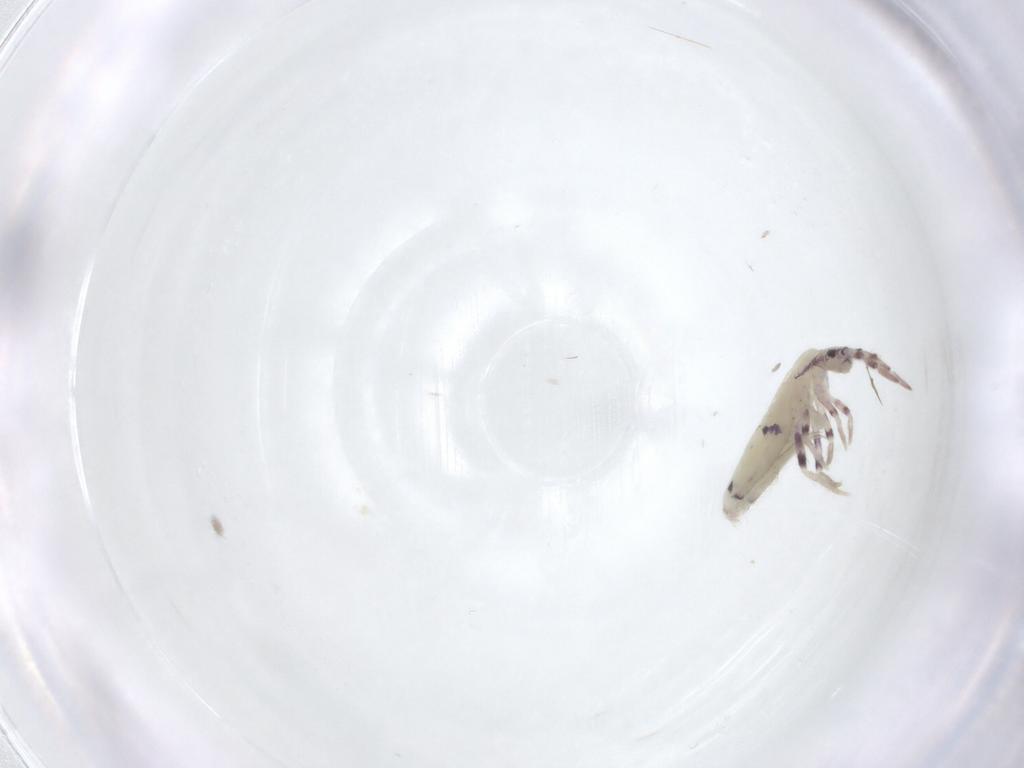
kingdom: Animalia
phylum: Arthropoda
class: Collembola
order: Entomobryomorpha
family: Entomobryidae
